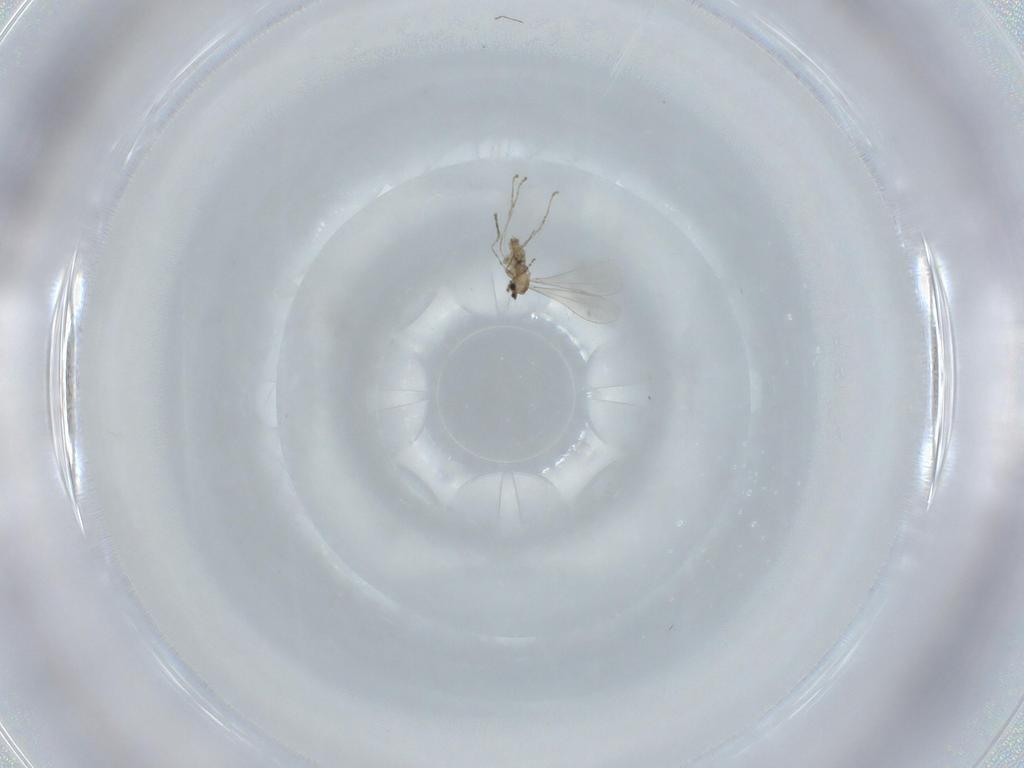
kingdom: Animalia
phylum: Arthropoda
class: Insecta
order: Diptera
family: Cecidomyiidae
